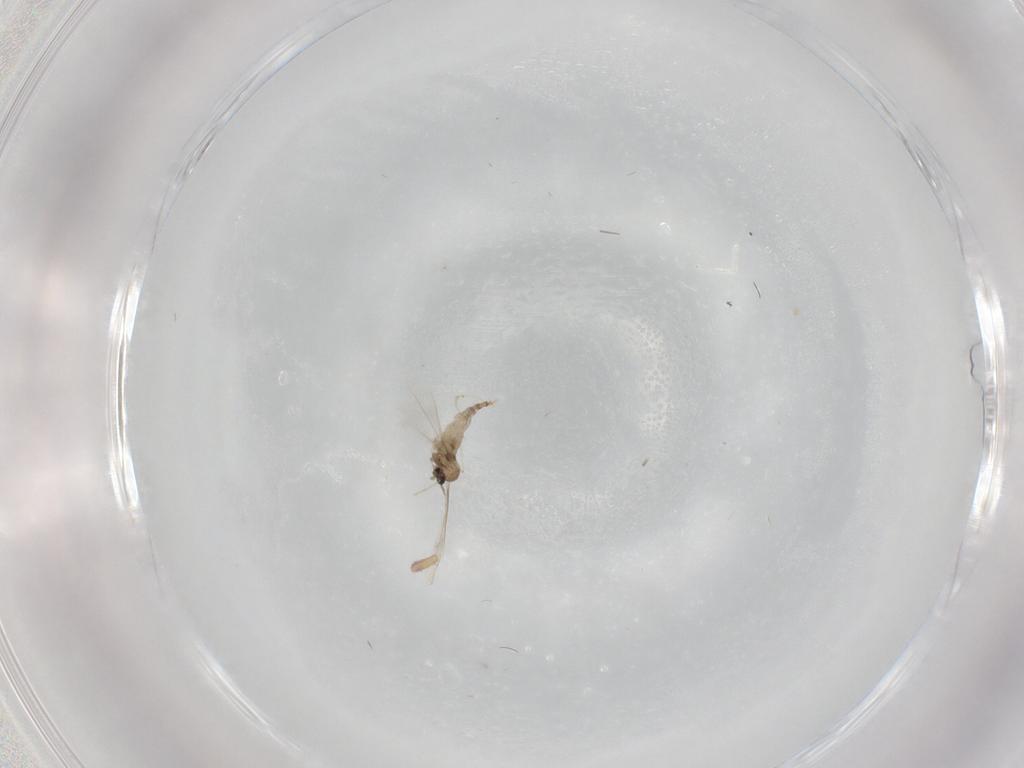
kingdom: Animalia
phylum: Arthropoda
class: Insecta
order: Diptera
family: Cecidomyiidae
